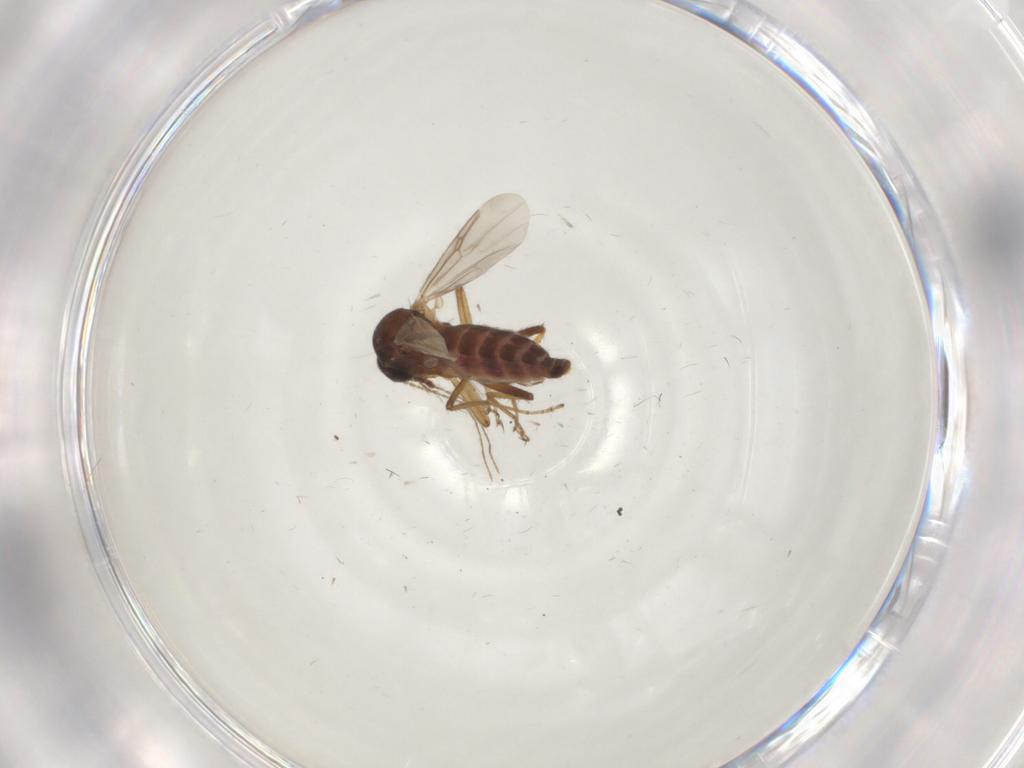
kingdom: Animalia
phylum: Arthropoda
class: Insecta
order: Diptera
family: Ceratopogonidae
